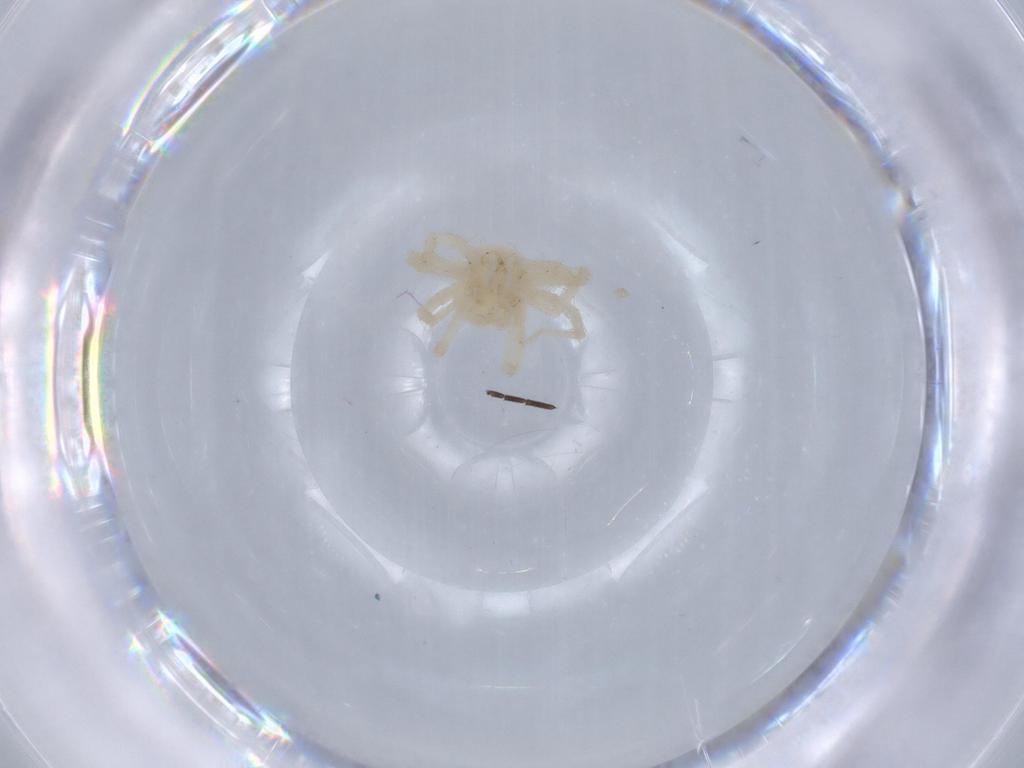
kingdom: Animalia
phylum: Arthropoda
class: Arachnida
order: Trombidiformes
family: Anystidae
